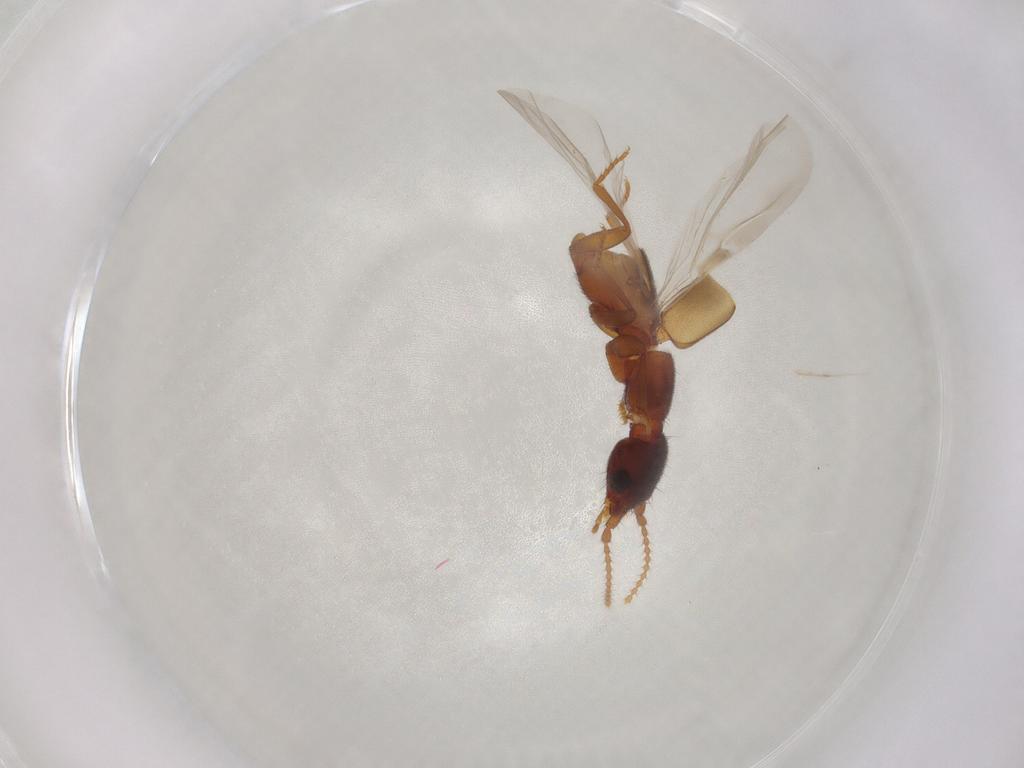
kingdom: Animalia
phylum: Arthropoda
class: Insecta
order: Coleoptera
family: Staphylinidae
